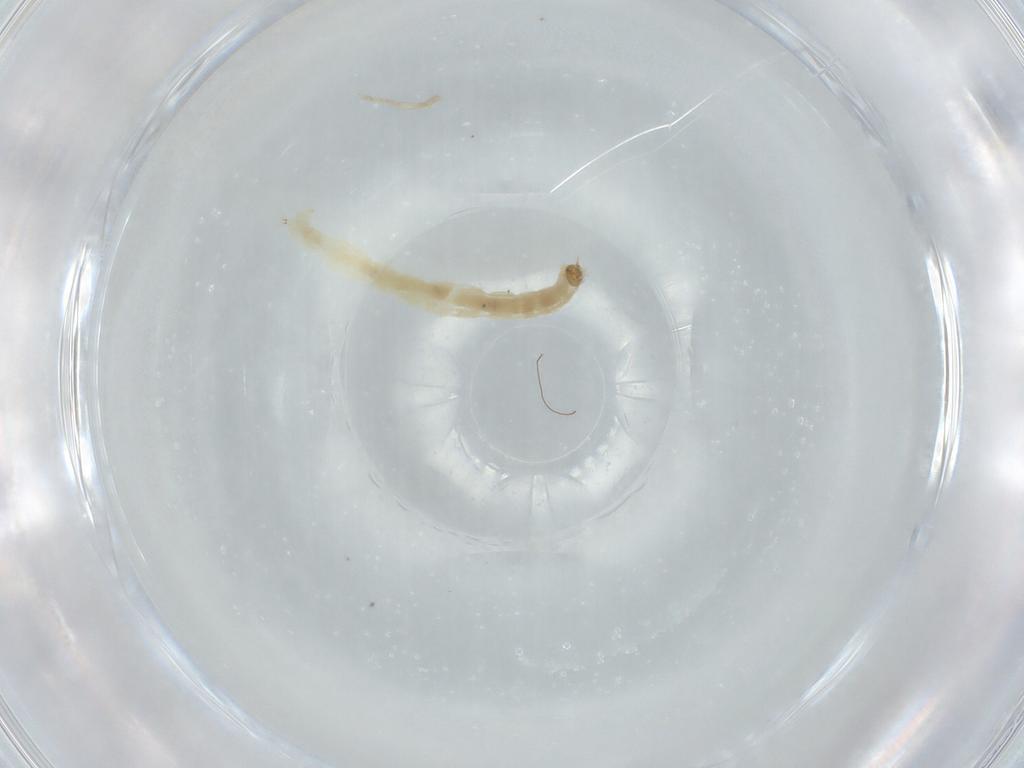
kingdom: Animalia
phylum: Arthropoda
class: Insecta
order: Diptera
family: Chironomidae
